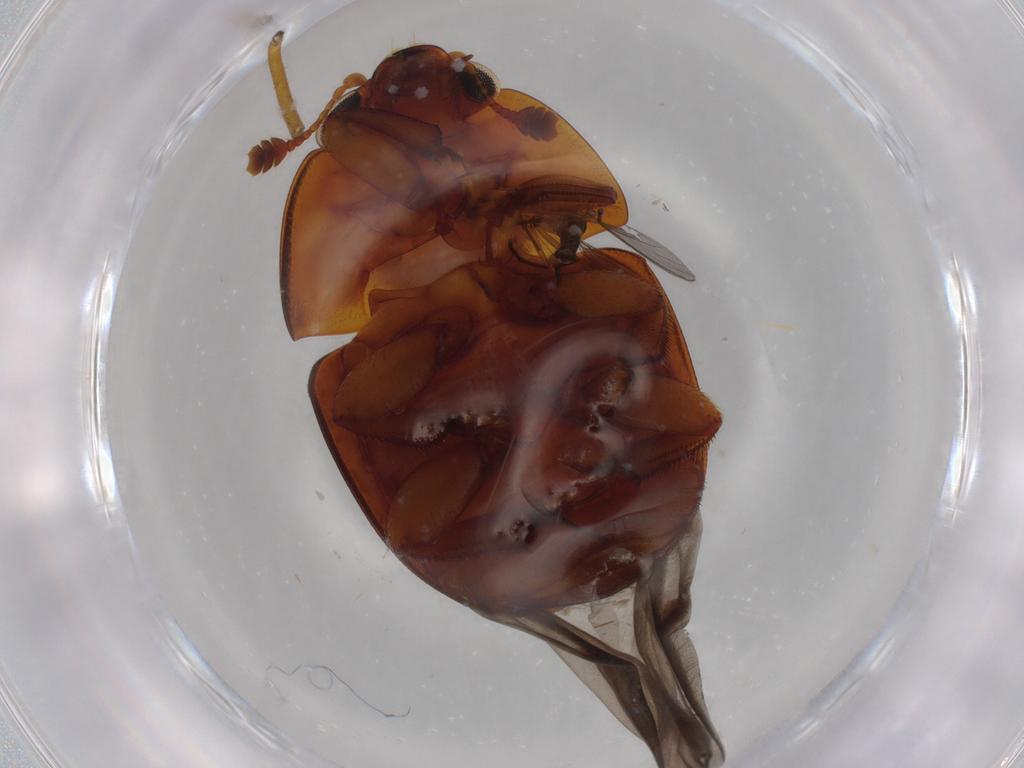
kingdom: Animalia
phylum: Arthropoda
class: Insecta
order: Coleoptera
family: Nitidulidae
